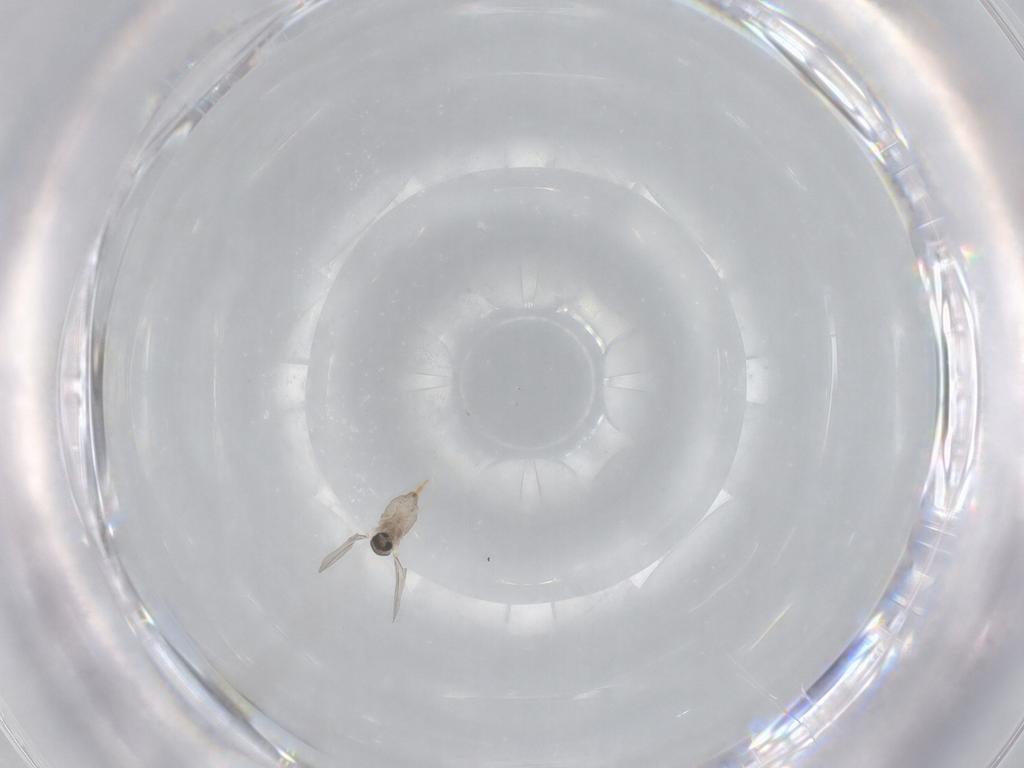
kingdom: Animalia
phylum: Arthropoda
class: Insecta
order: Diptera
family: Cecidomyiidae
